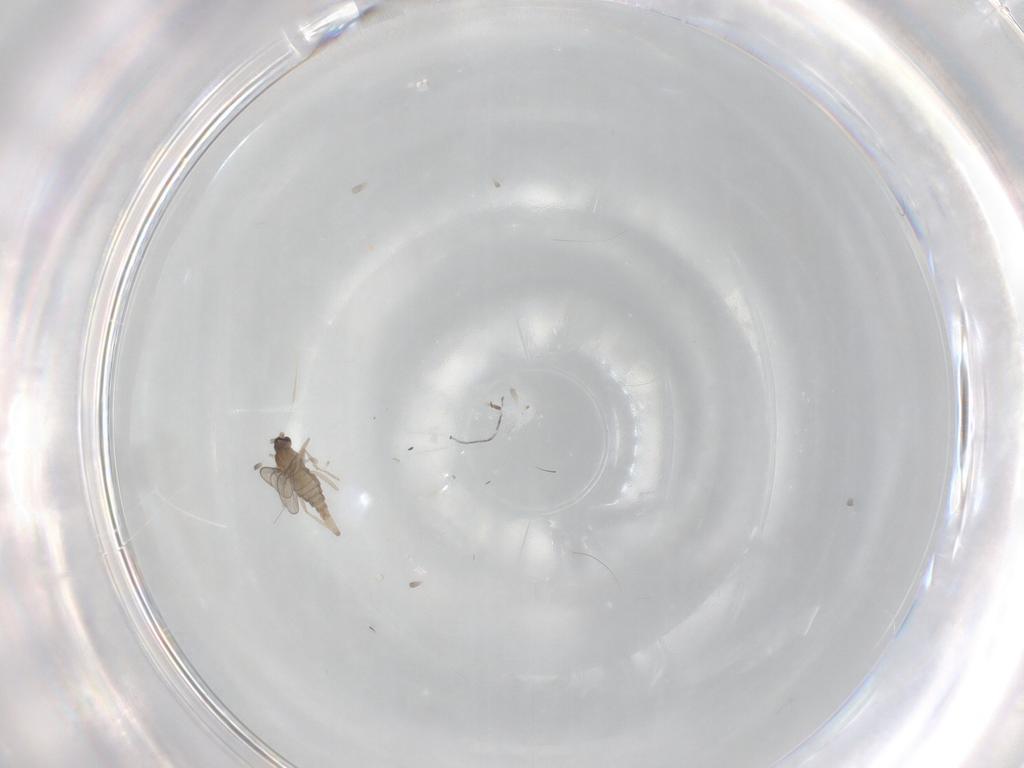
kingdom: Animalia
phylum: Arthropoda
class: Insecta
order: Diptera
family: Cecidomyiidae
